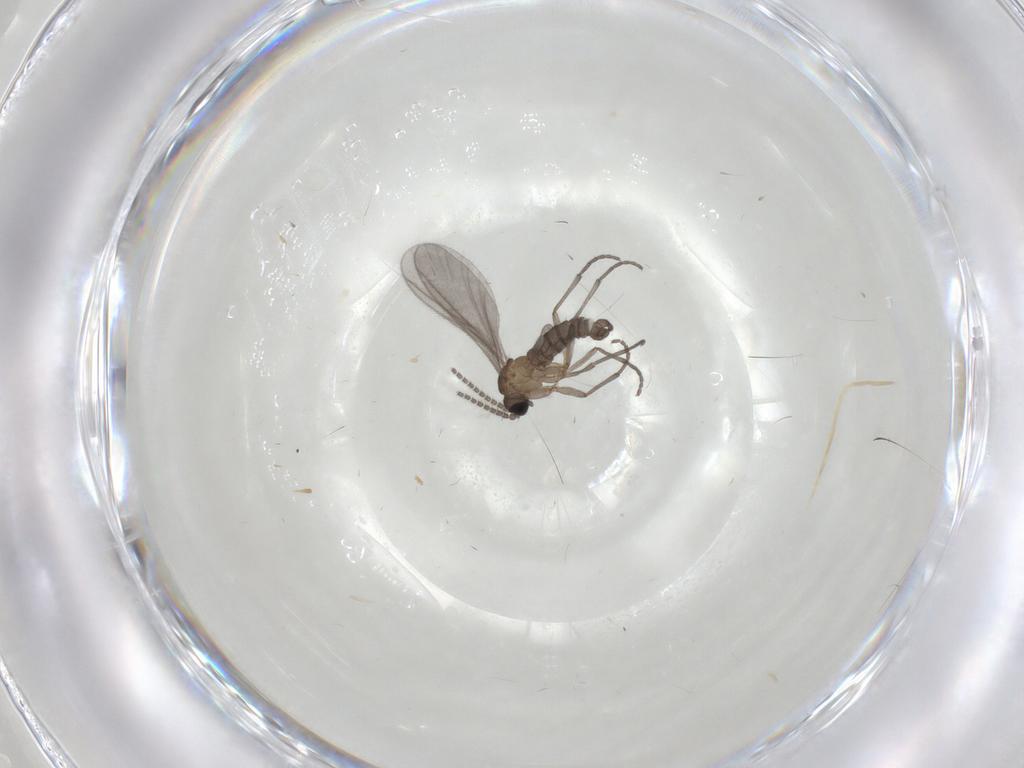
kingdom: Animalia
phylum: Arthropoda
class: Insecta
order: Diptera
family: Sciaridae
